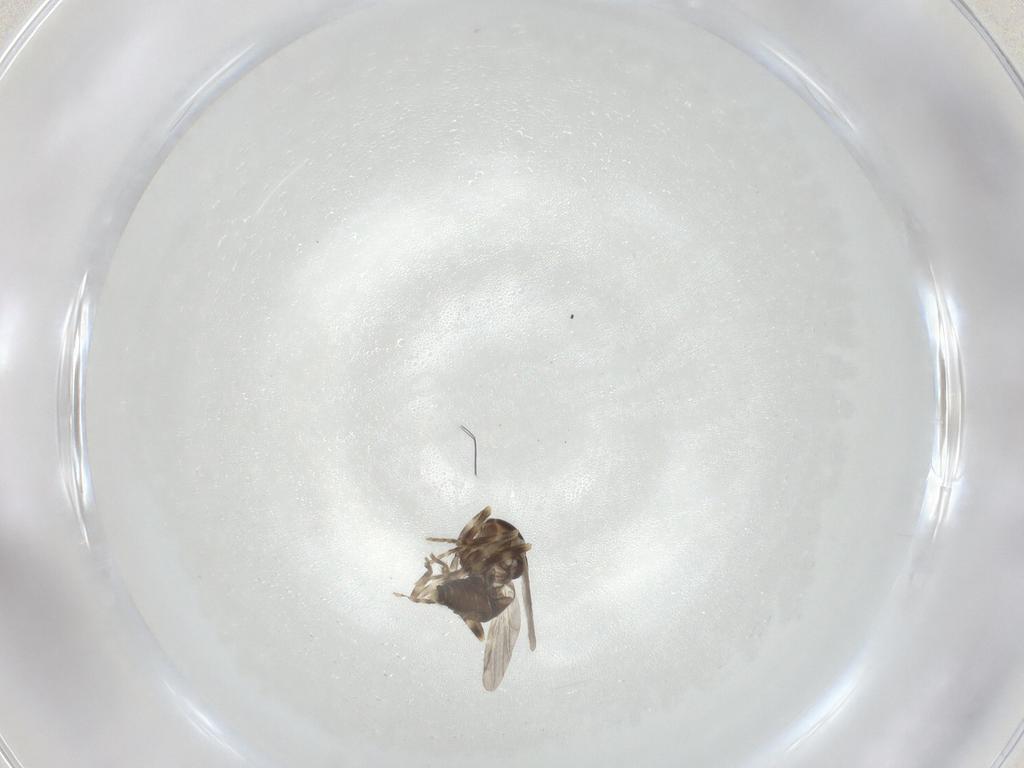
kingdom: Animalia
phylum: Arthropoda
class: Insecta
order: Diptera
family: Ceratopogonidae
